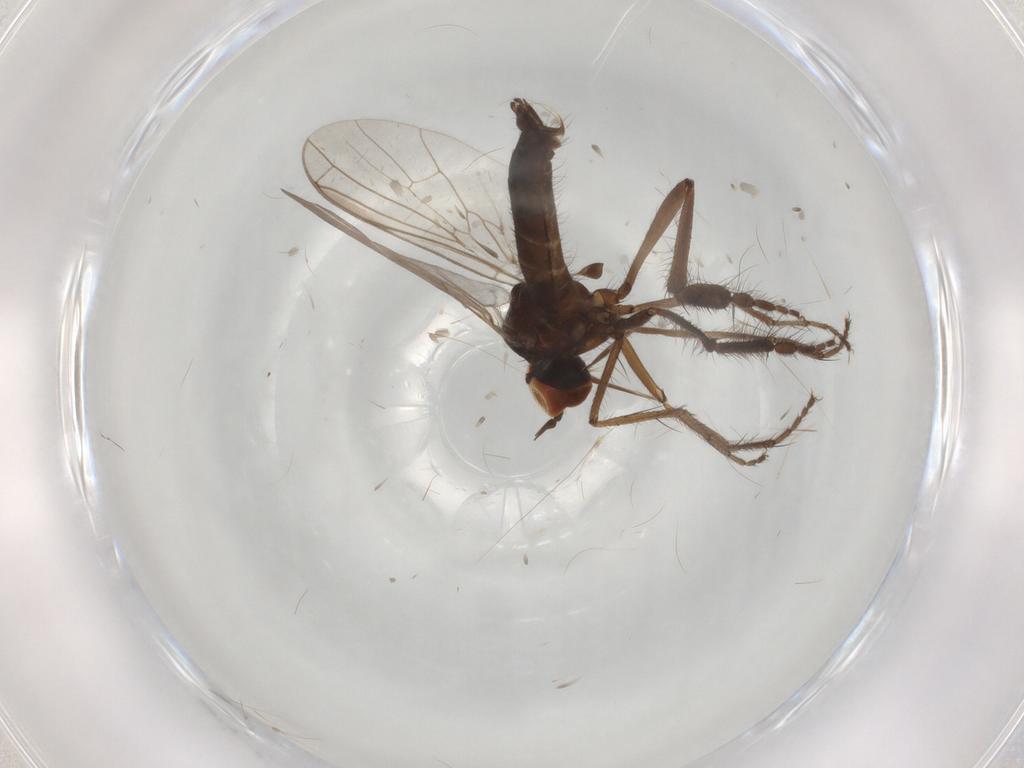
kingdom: Animalia
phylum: Arthropoda
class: Insecta
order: Diptera
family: Empididae
